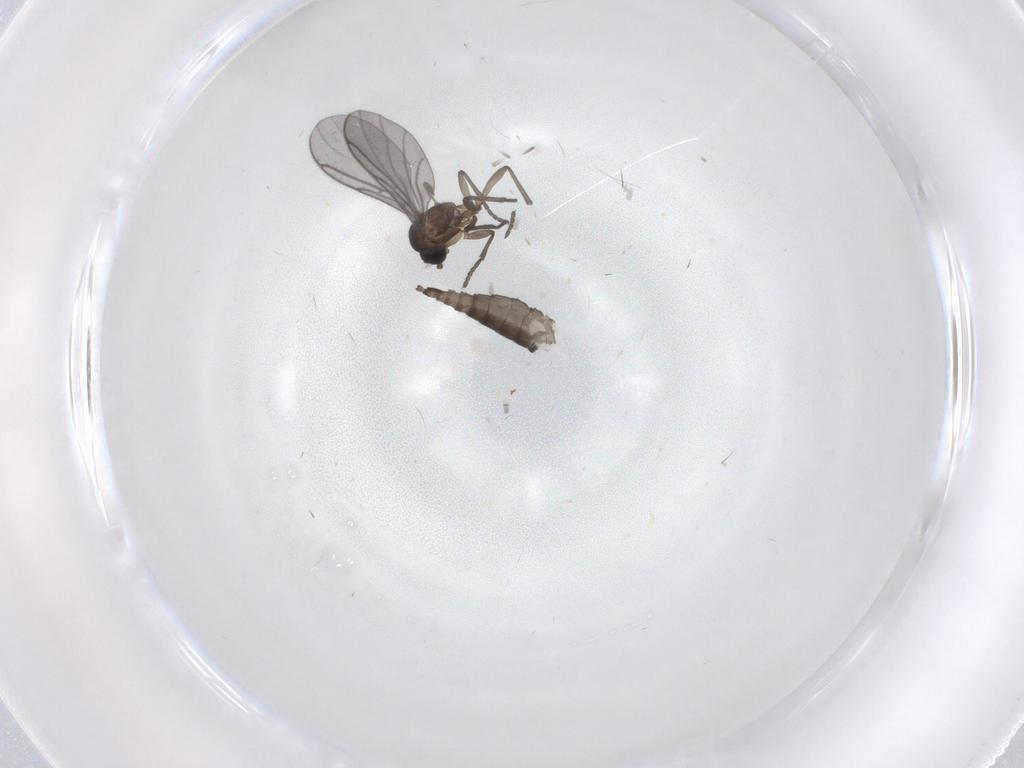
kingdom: Animalia
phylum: Arthropoda
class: Insecta
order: Diptera
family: Sciaridae
